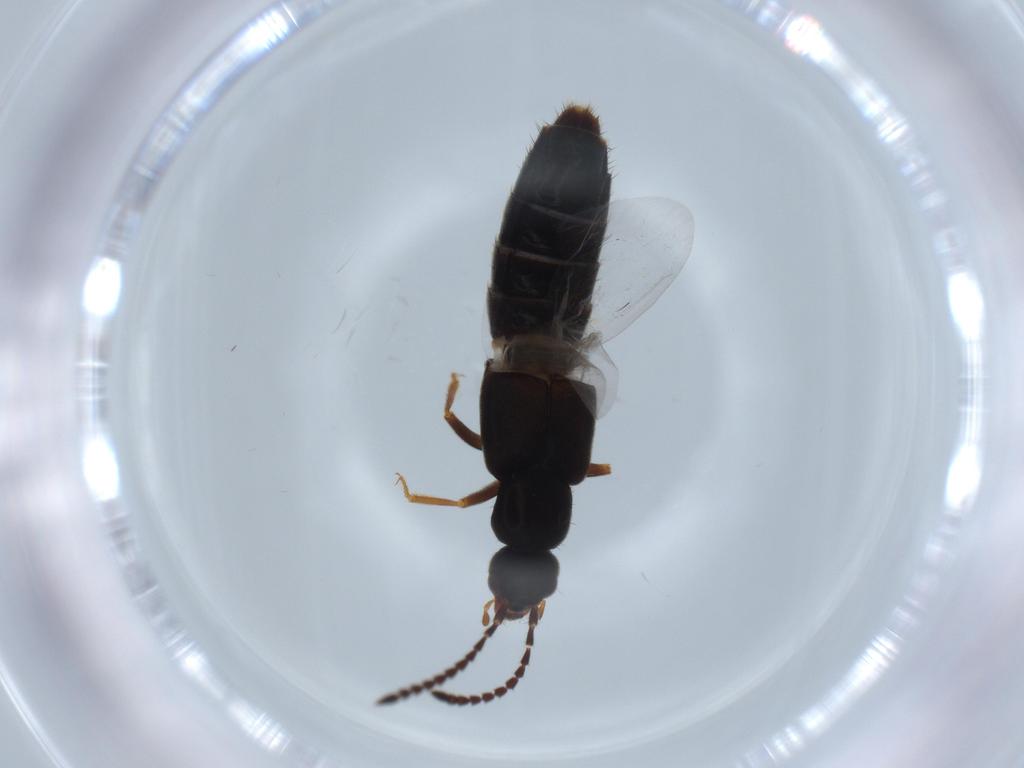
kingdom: Animalia
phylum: Arthropoda
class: Insecta
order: Coleoptera
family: Staphylinidae
